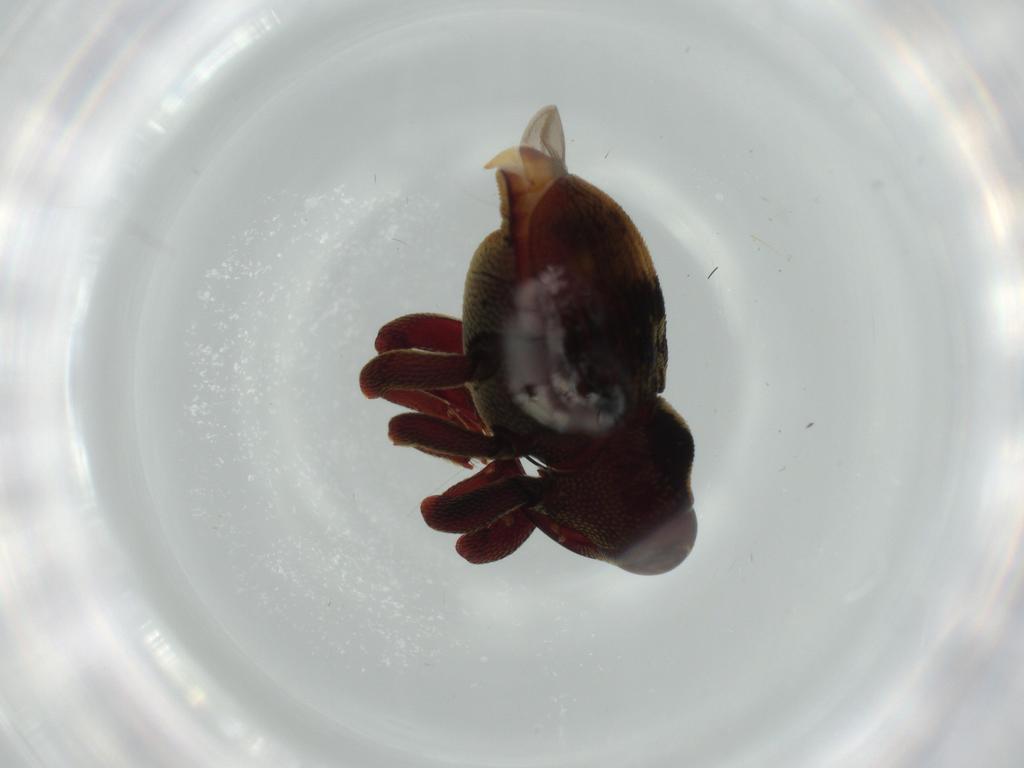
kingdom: Animalia
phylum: Arthropoda
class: Insecta
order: Coleoptera
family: Curculionidae
